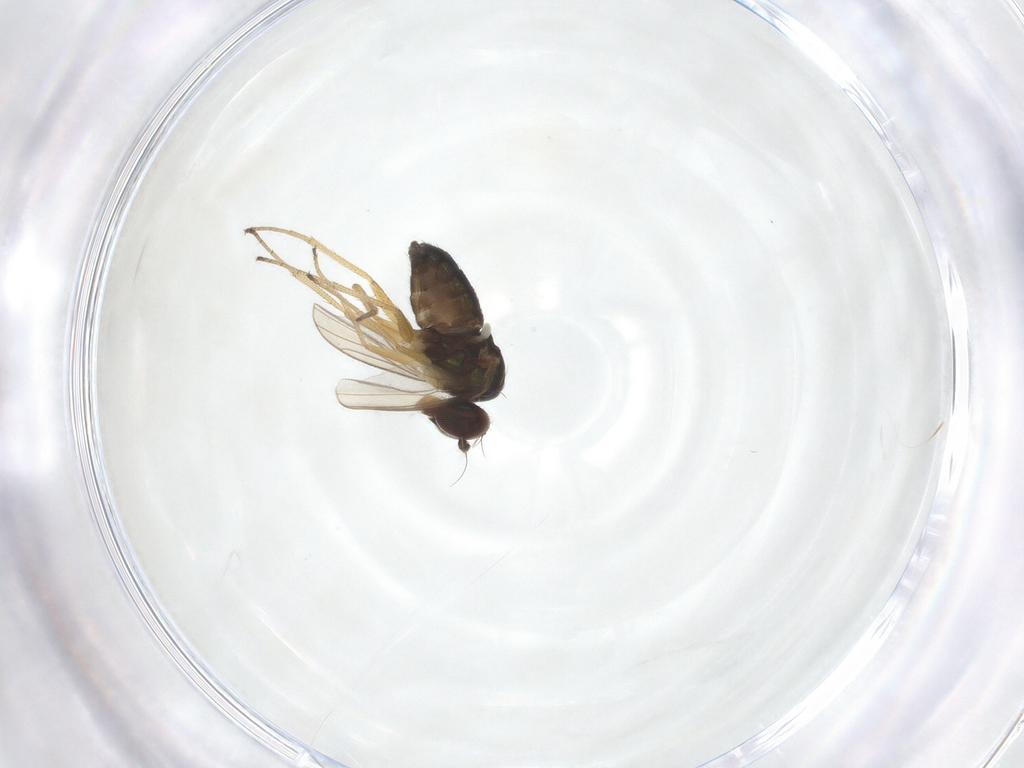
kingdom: Animalia
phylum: Arthropoda
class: Insecta
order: Diptera
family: Dolichopodidae
